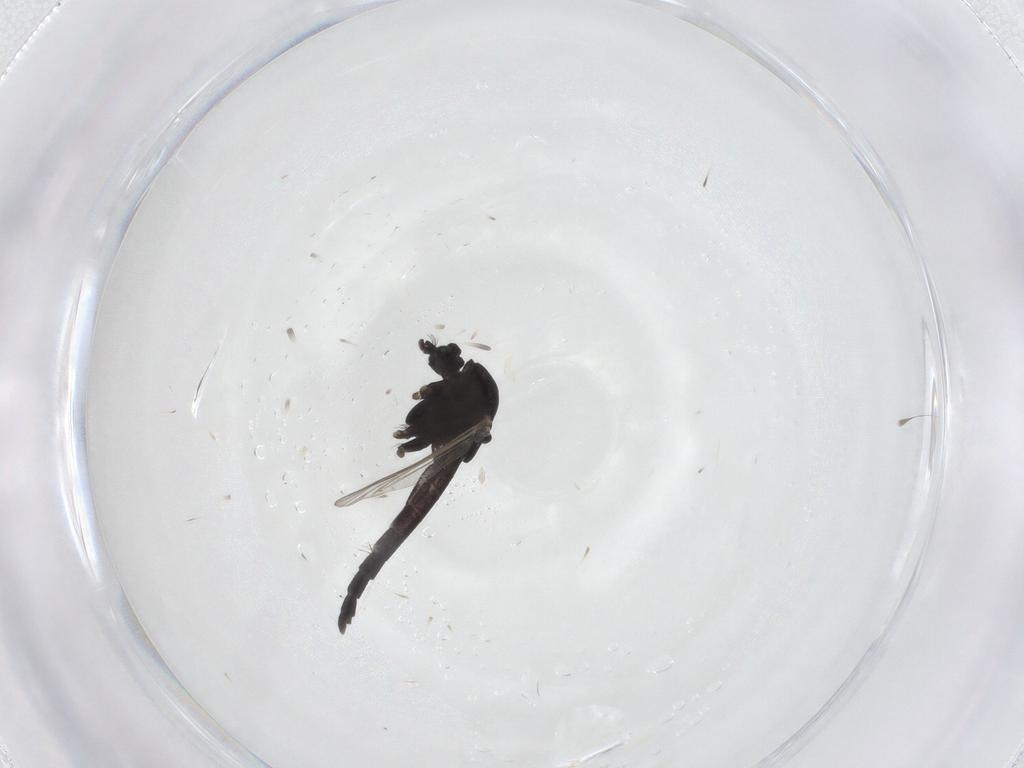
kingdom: Animalia
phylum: Arthropoda
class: Insecta
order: Diptera
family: Chironomidae
